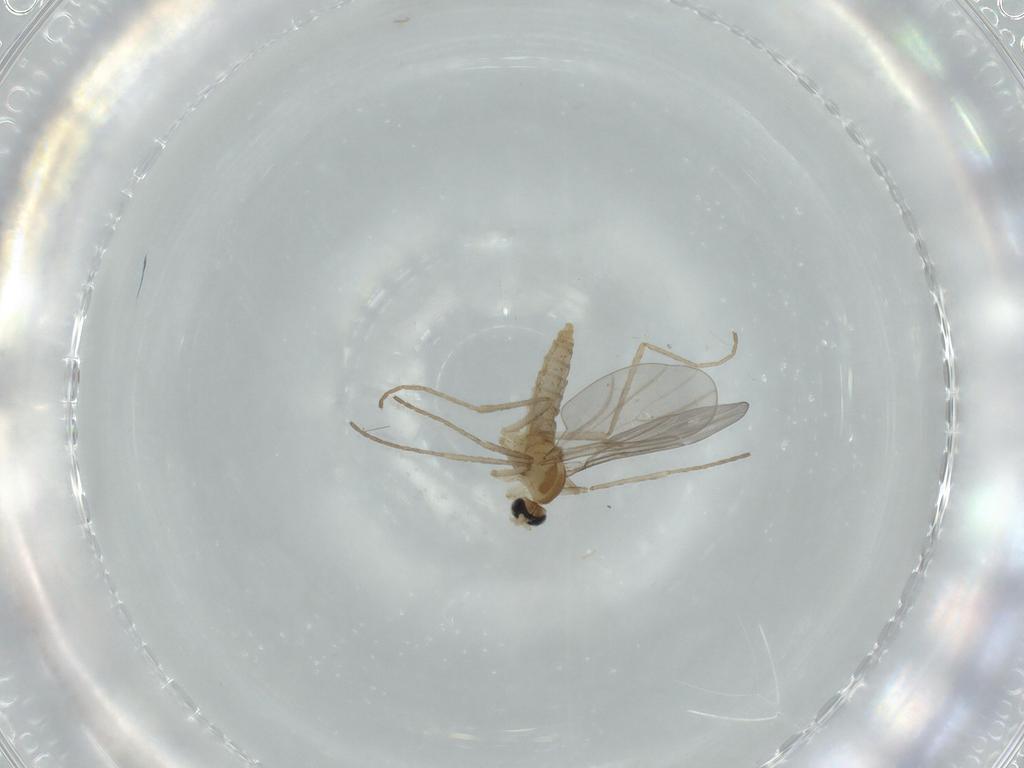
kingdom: Animalia
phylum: Arthropoda
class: Insecta
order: Diptera
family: Cecidomyiidae
